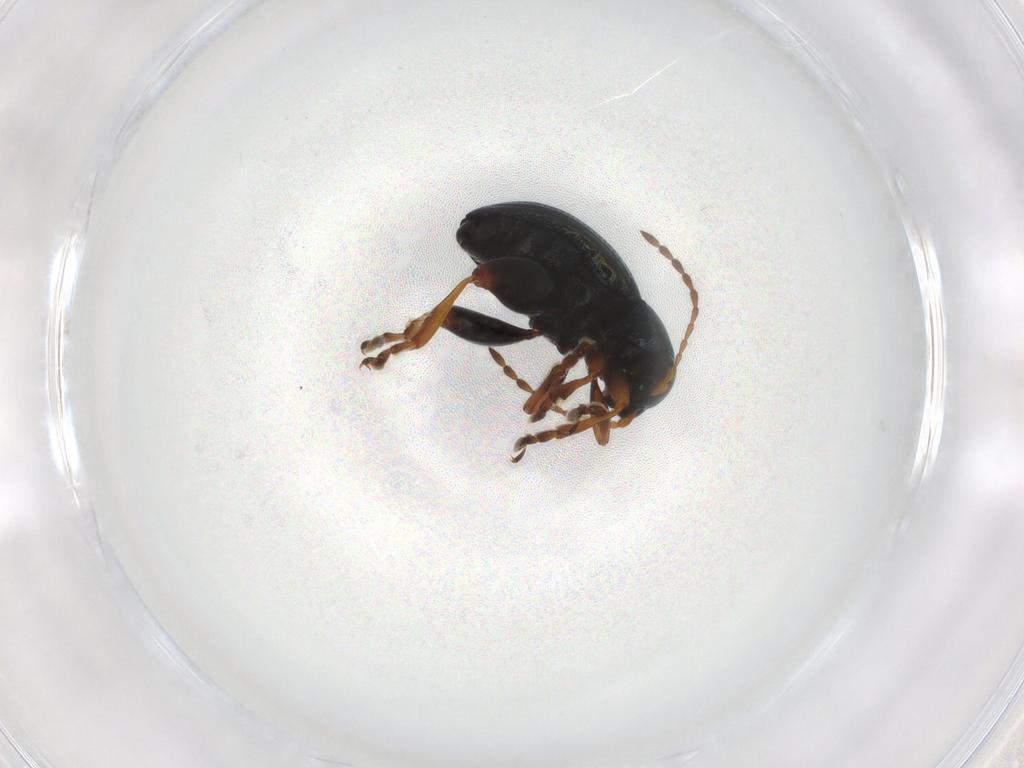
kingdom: Animalia
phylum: Arthropoda
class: Insecta
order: Coleoptera
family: Chrysomelidae
